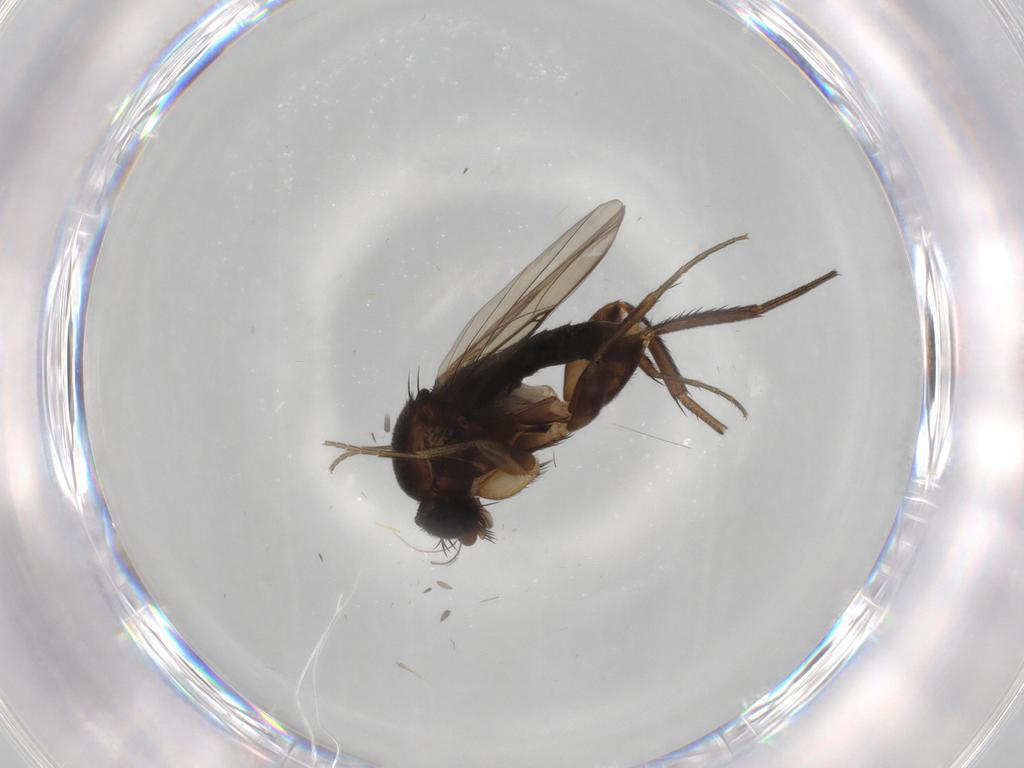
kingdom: Animalia
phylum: Arthropoda
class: Insecta
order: Diptera
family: Phoridae
